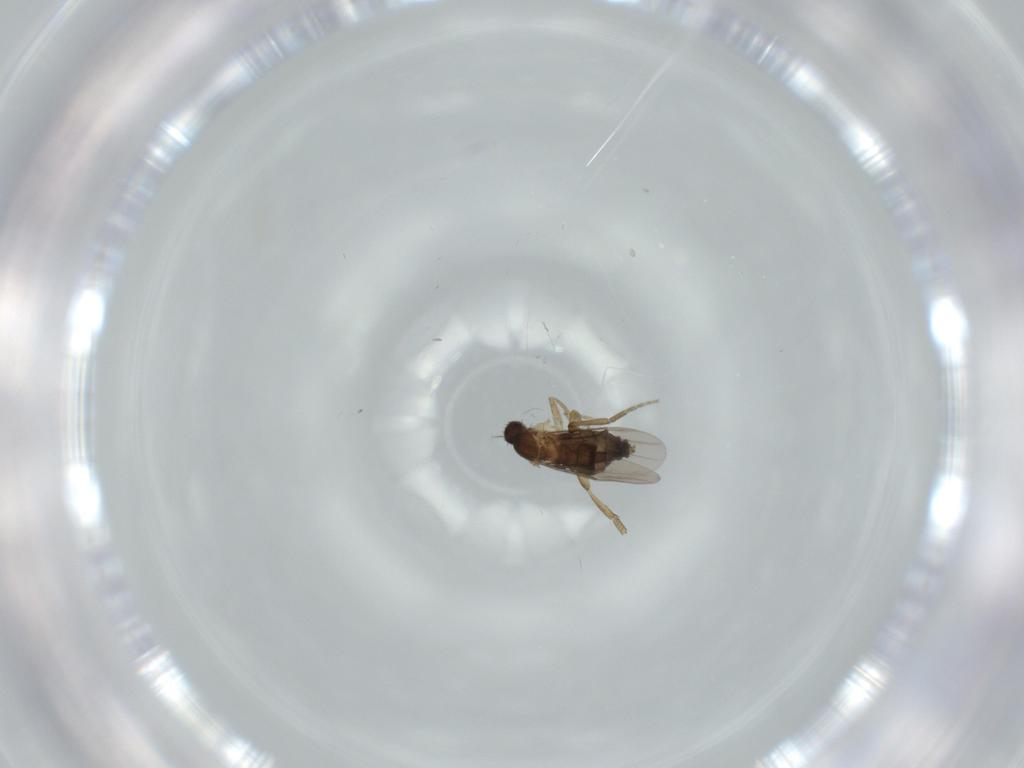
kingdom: Animalia
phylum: Arthropoda
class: Insecta
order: Diptera
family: Phoridae
